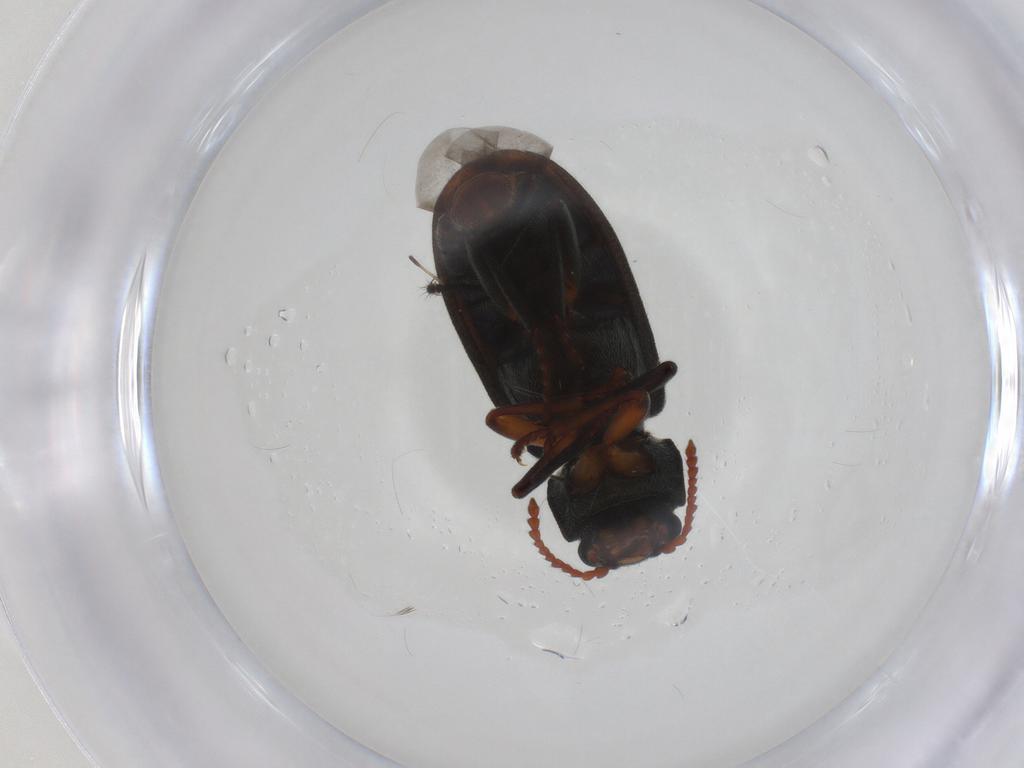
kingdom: Animalia
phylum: Arthropoda
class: Insecta
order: Coleoptera
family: Melyridae
